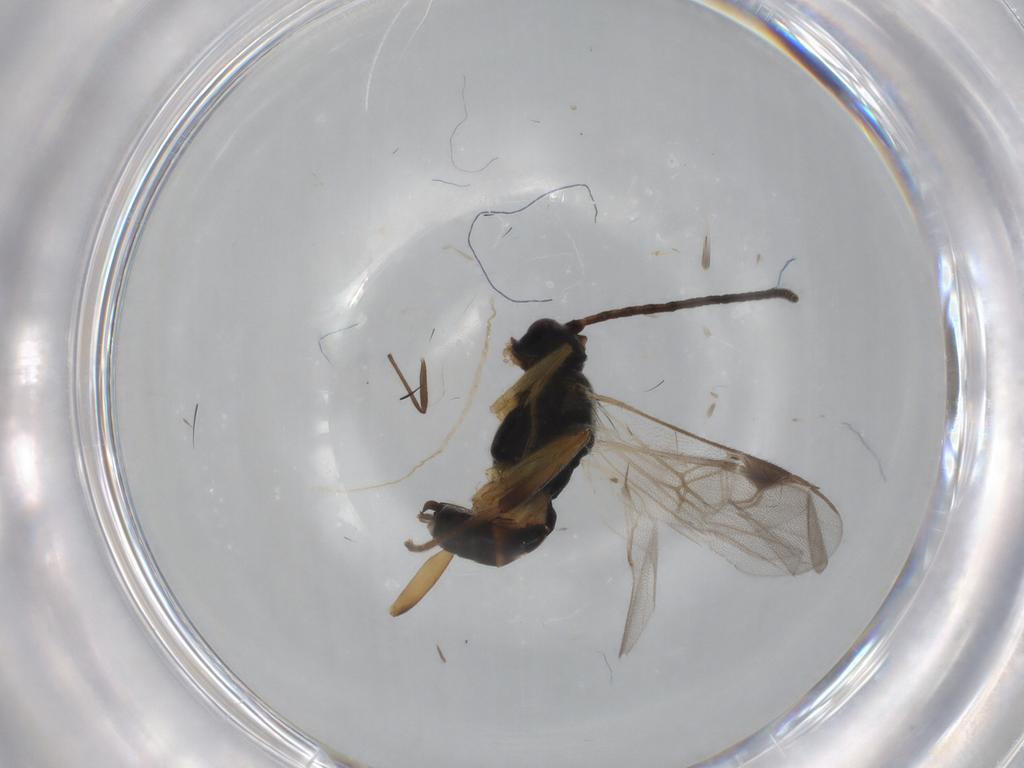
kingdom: Animalia
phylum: Arthropoda
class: Insecta
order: Hymenoptera
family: Braconidae
